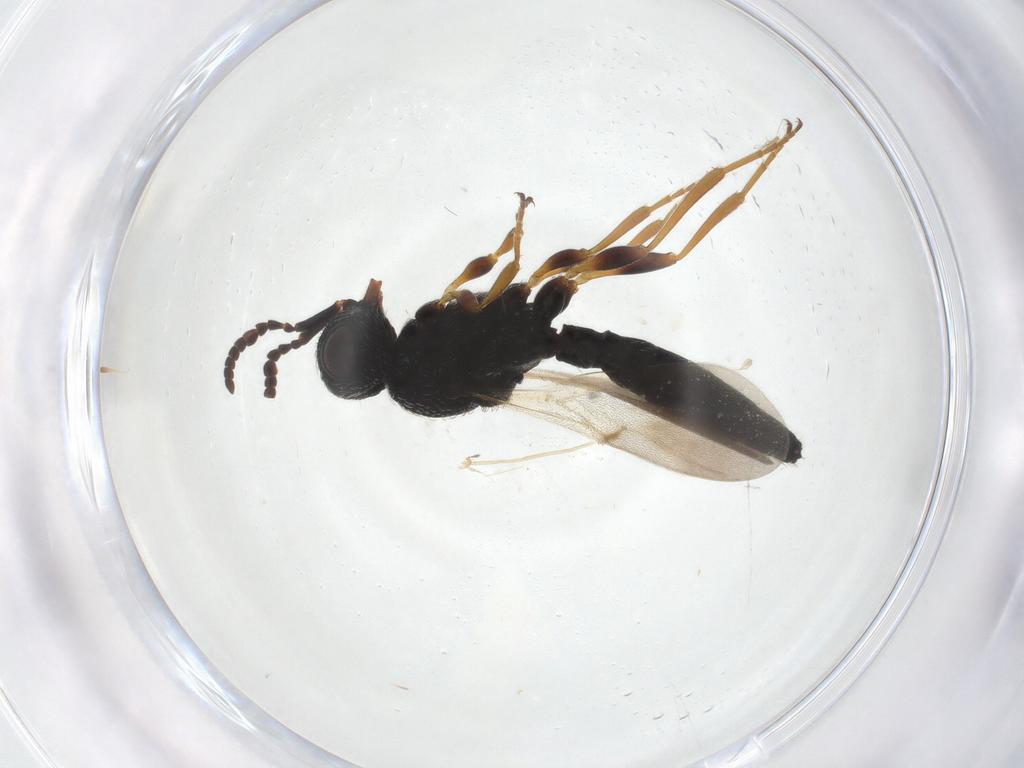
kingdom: Animalia
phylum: Arthropoda
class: Insecta
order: Hymenoptera
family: Scelionidae
